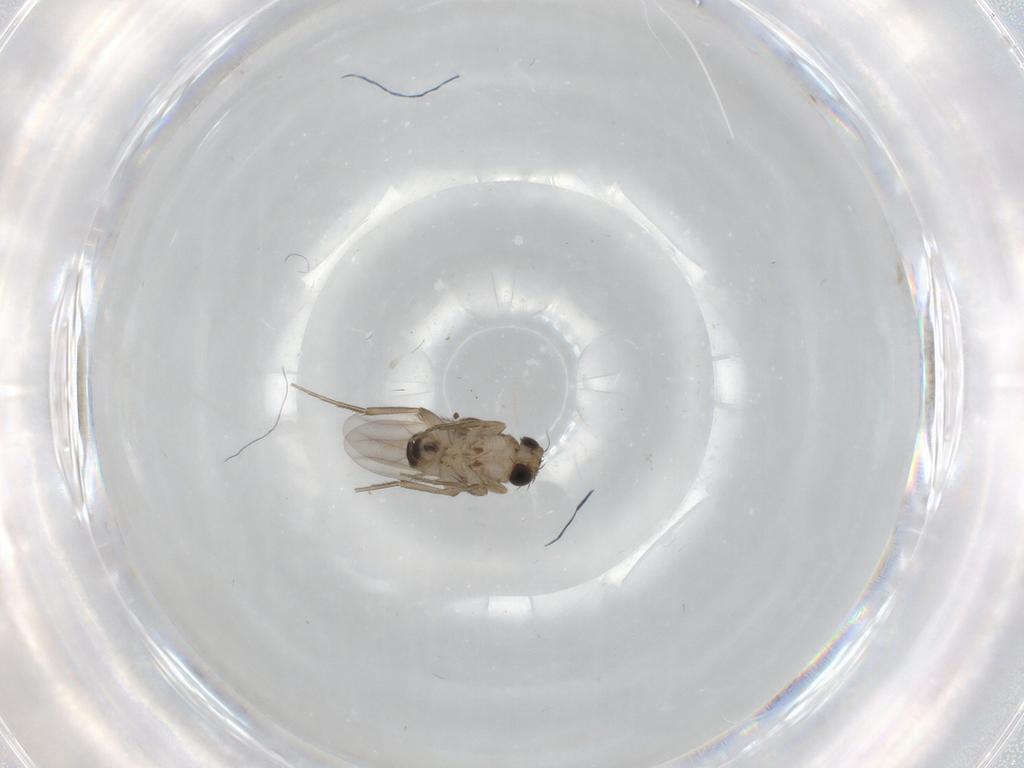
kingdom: Animalia
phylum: Arthropoda
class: Insecta
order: Diptera
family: Phoridae
